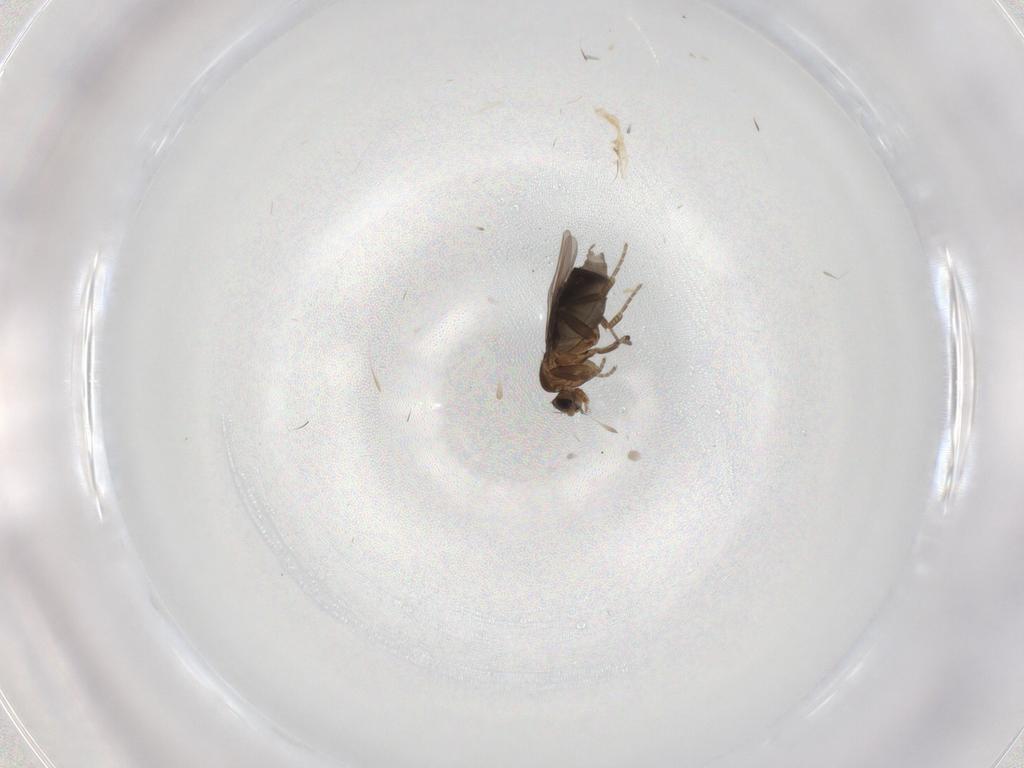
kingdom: Animalia
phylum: Arthropoda
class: Insecta
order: Diptera
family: Phoridae
